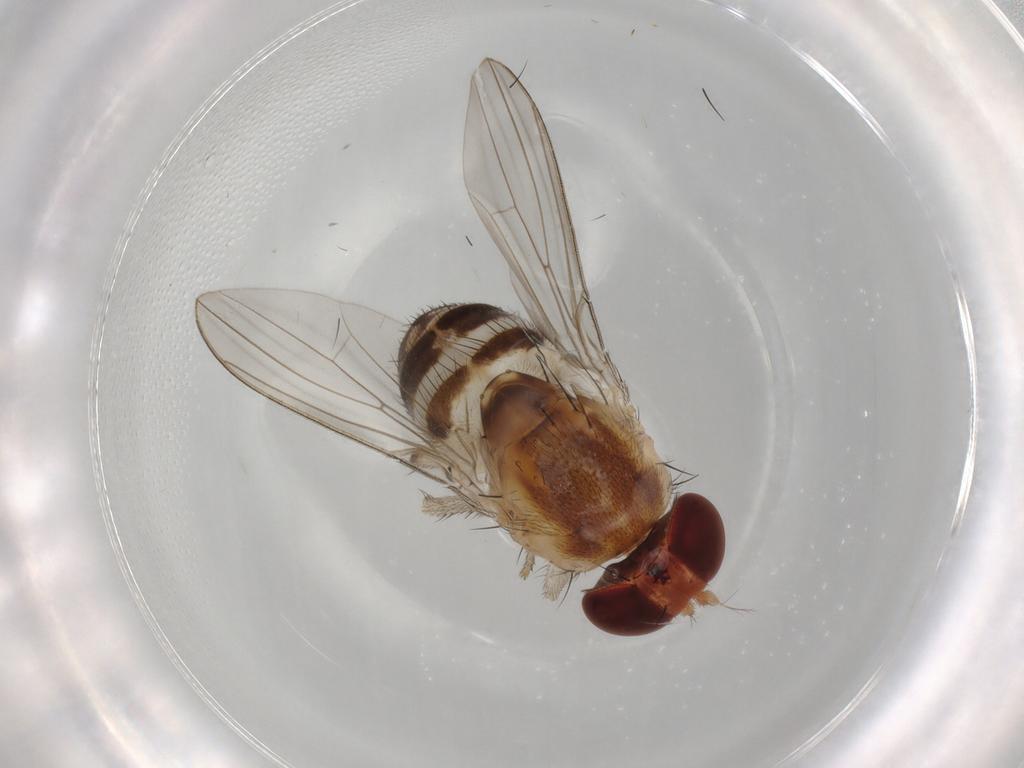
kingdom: Animalia
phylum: Arthropoda
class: Insecta
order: Diptera
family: Drosophilidae
